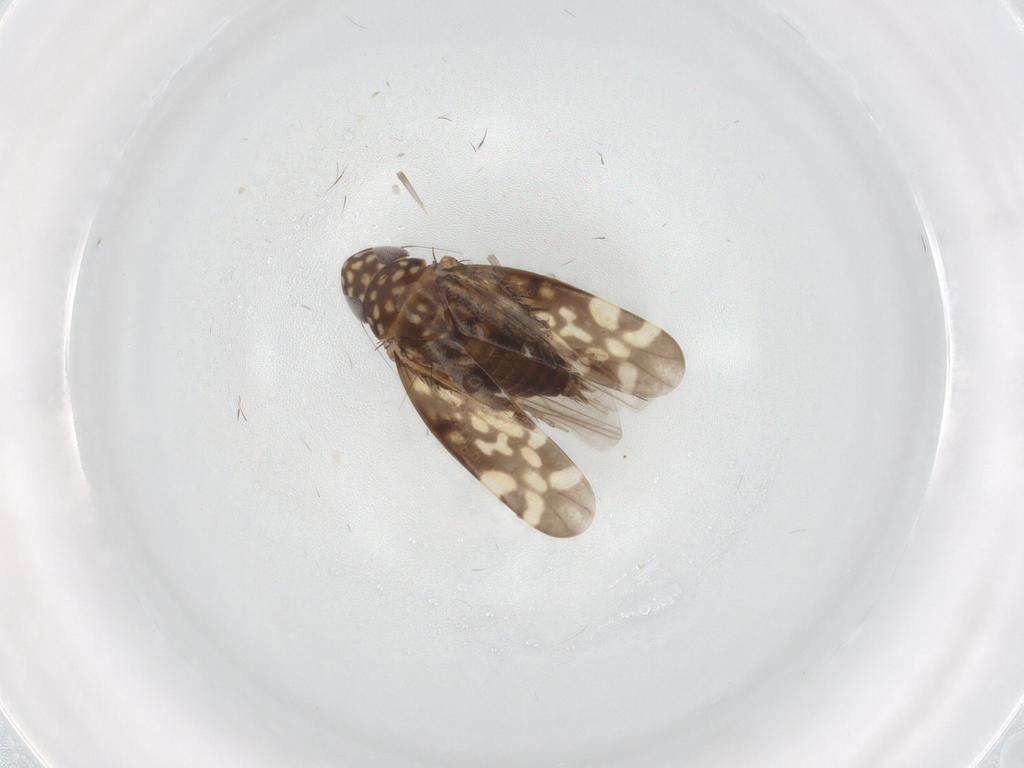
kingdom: Animalia
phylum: Arthropoda
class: Insecta
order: Hemiptera
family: Cicadellidae
